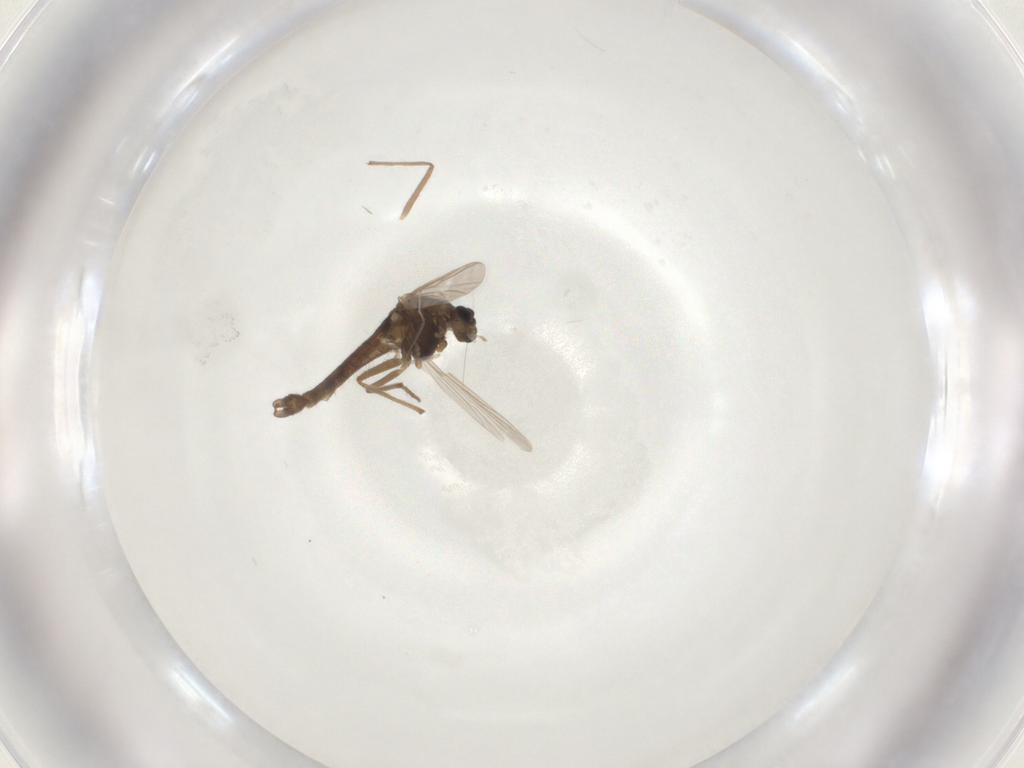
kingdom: Animalia
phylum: Arthropoda
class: Insecta
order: Diptera
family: Chironomidae
